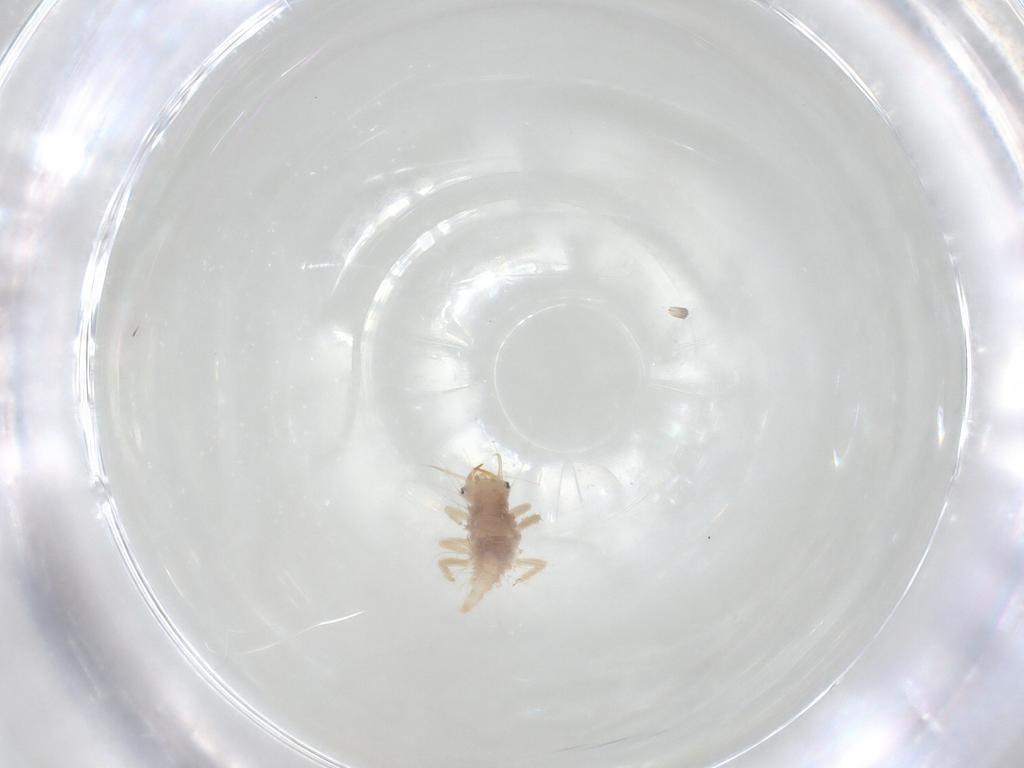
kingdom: Animalia
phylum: Arthropoda
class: Insecta
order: Neuroptera
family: Chrysopidae
